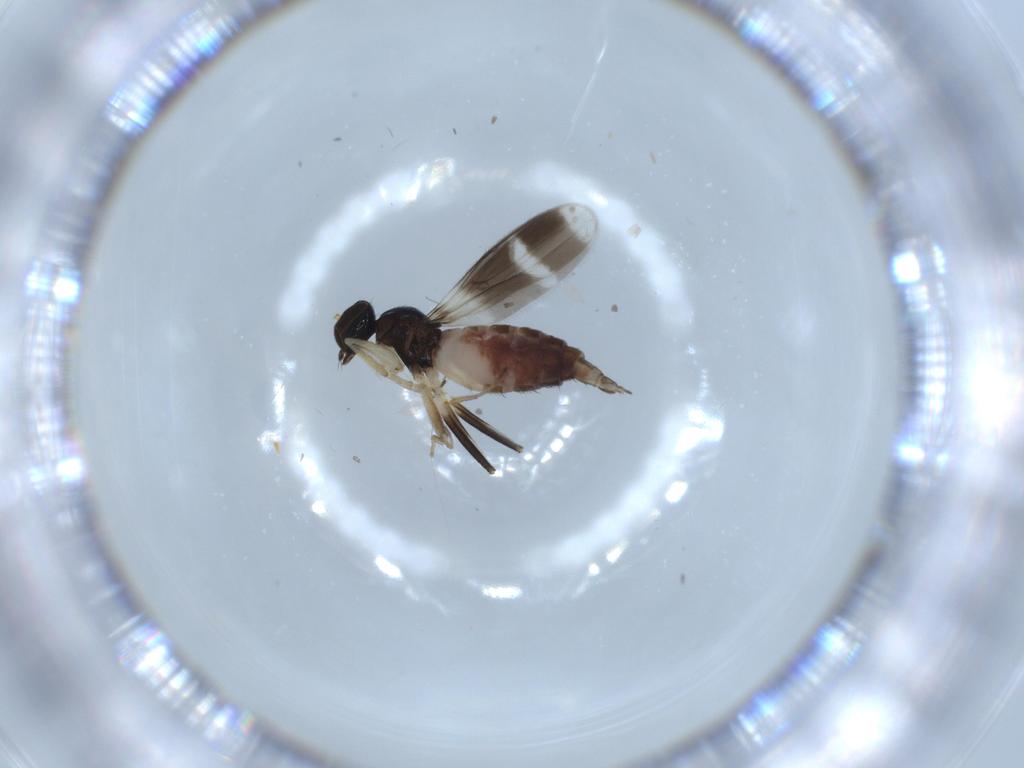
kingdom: Animalia
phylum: Arthropoda
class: Insecta
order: Diptera
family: Hybotidae
